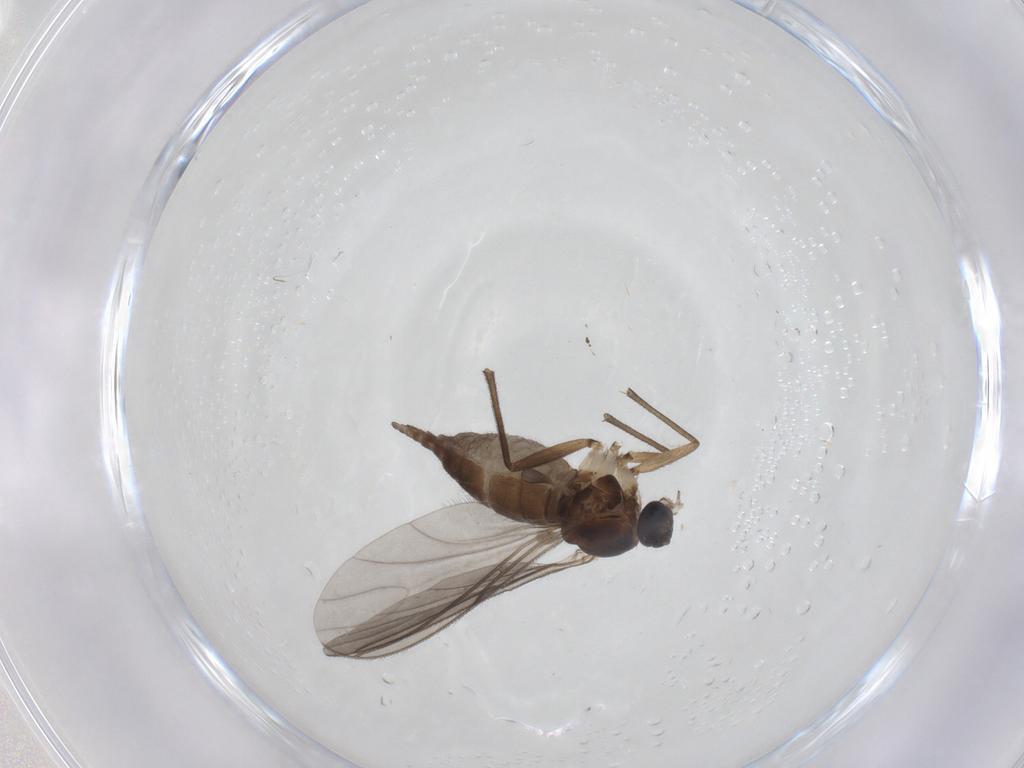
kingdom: Animalia
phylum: Arthropoda
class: Insecta
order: Diptera
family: Sciaridae
